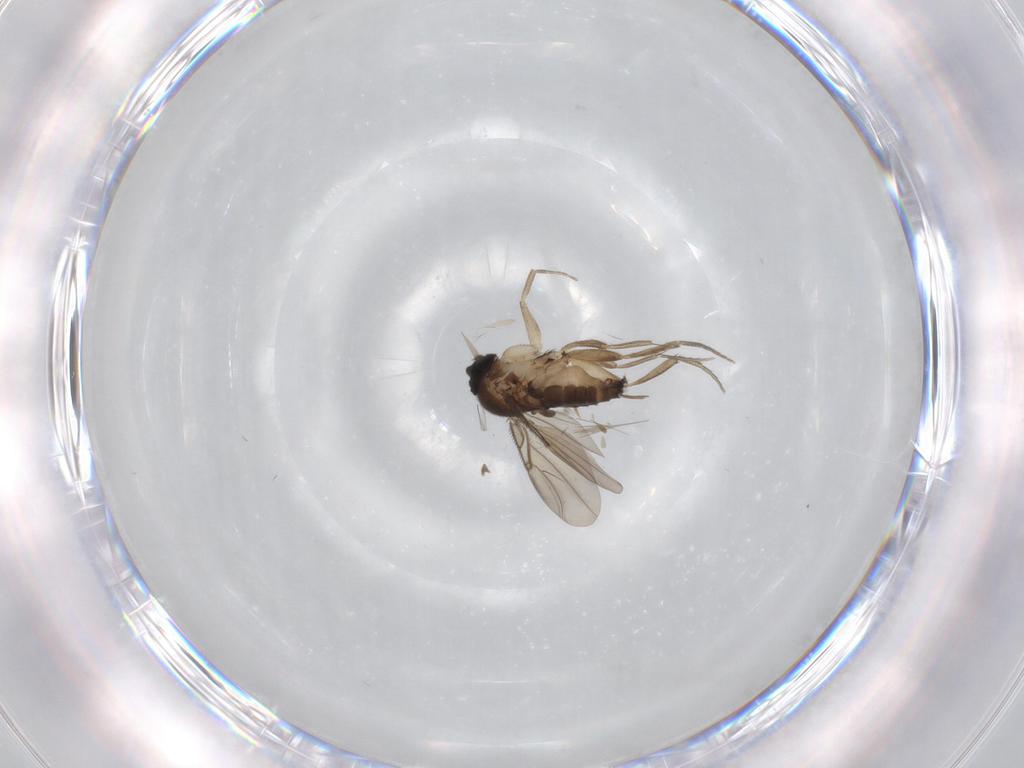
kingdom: Animalia
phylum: Arthropoda
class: Insecta
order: Diptera
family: Phoridae
